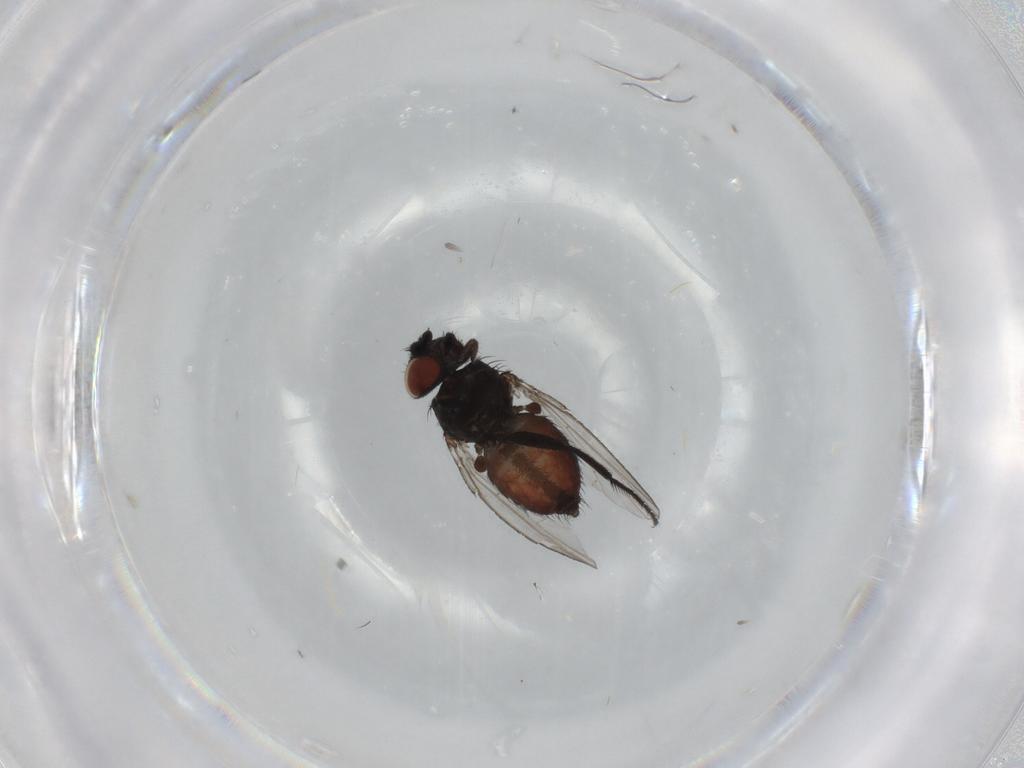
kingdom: Animalia
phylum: Arthropoda
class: Insecta
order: Diptera
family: Milichiidae
